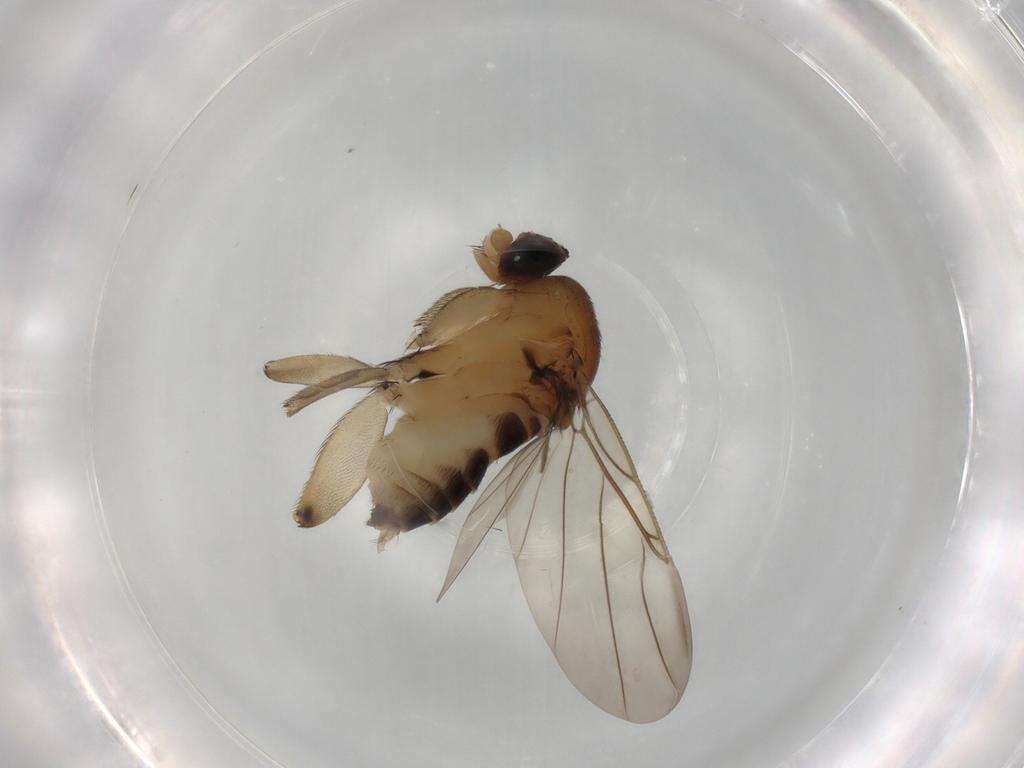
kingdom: Animalia
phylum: Arthropoda
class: Insecta
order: Diptera
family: Phoridae
